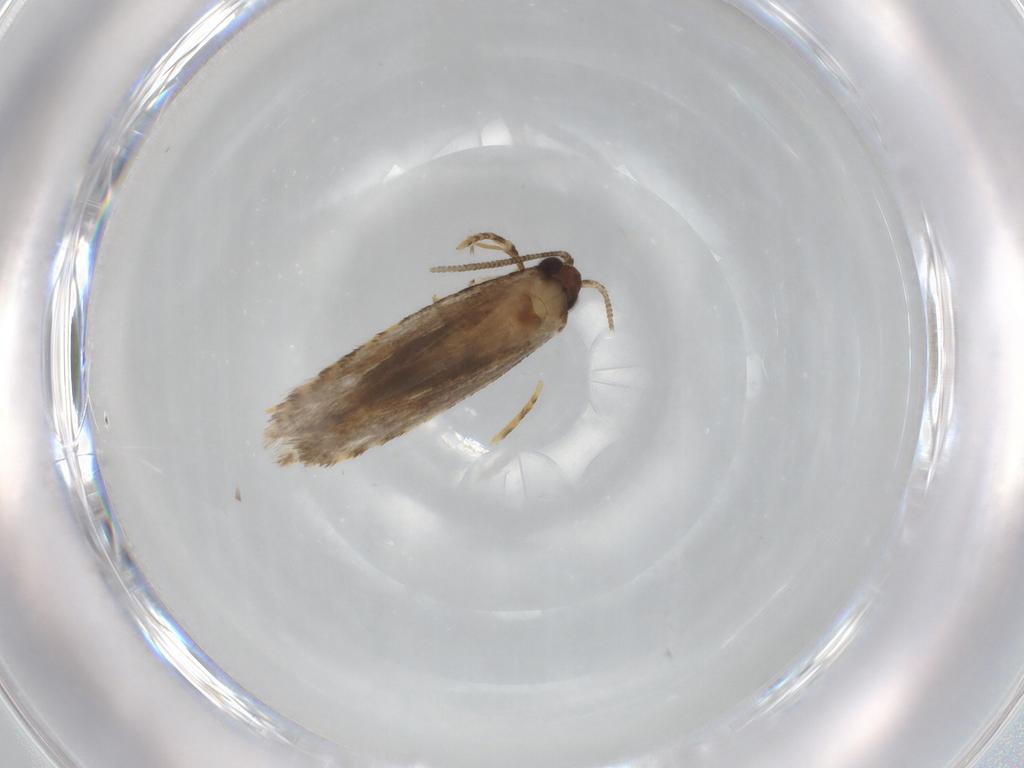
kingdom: Animalia
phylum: Arthropoda
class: Insecta
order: Lepidoptera
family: Tineidae
